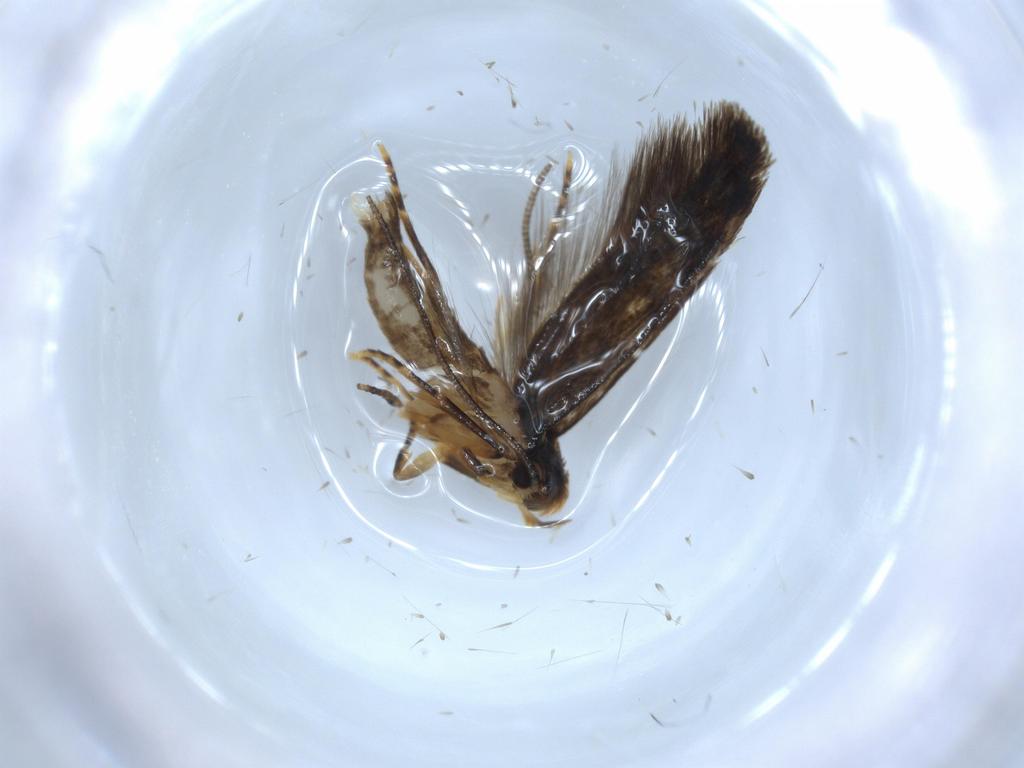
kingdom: Animalia
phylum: Arthropoda
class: Insecta
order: Lepidoptera
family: Tineidae
